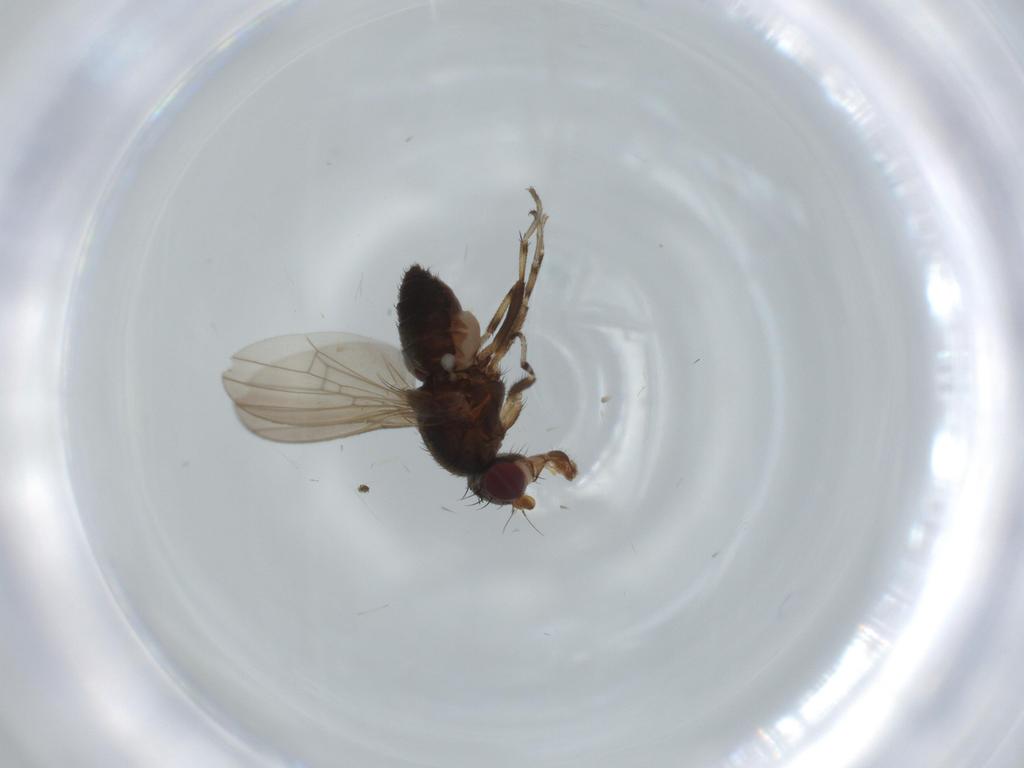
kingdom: Animalia
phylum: Arthropoda
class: Insecta
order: Diptera
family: Heleomyzidae
